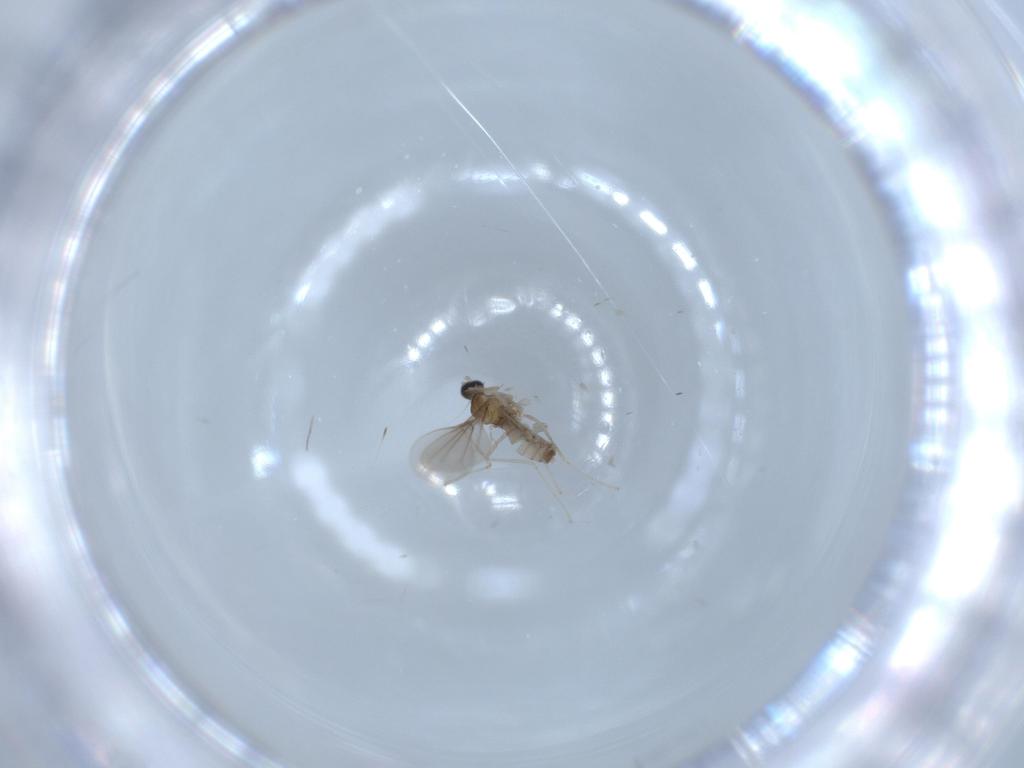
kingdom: Animalia
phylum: Arthropoda
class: Insecta
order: Diptera
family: Cecidomyiidae
